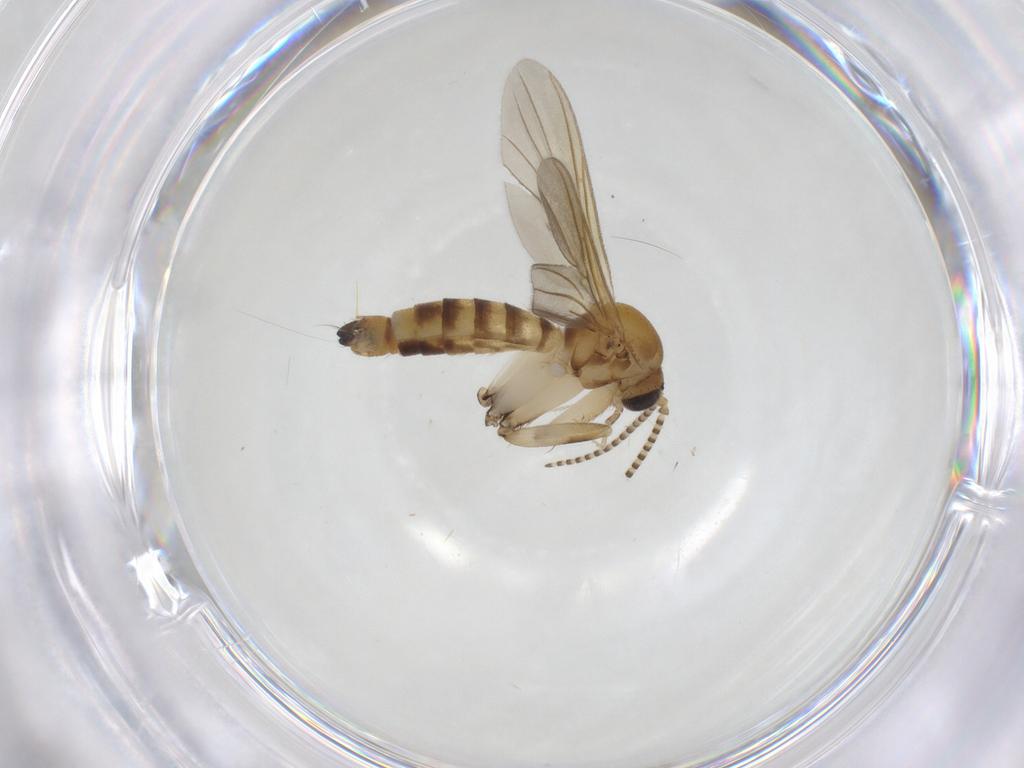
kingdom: Animalia
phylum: Arthropoda
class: Insecta
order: Diptera
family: Mycetophilidae
